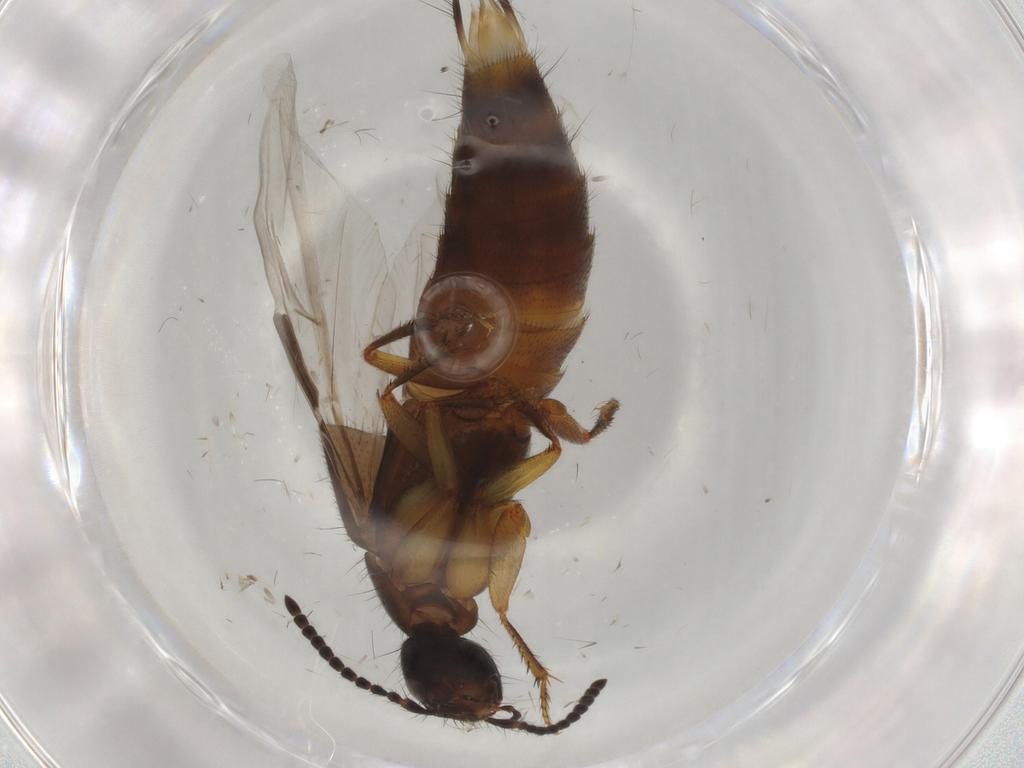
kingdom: Animalia
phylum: Arthropoda
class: Insecta
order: Coleoptera
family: Staphylinidae
